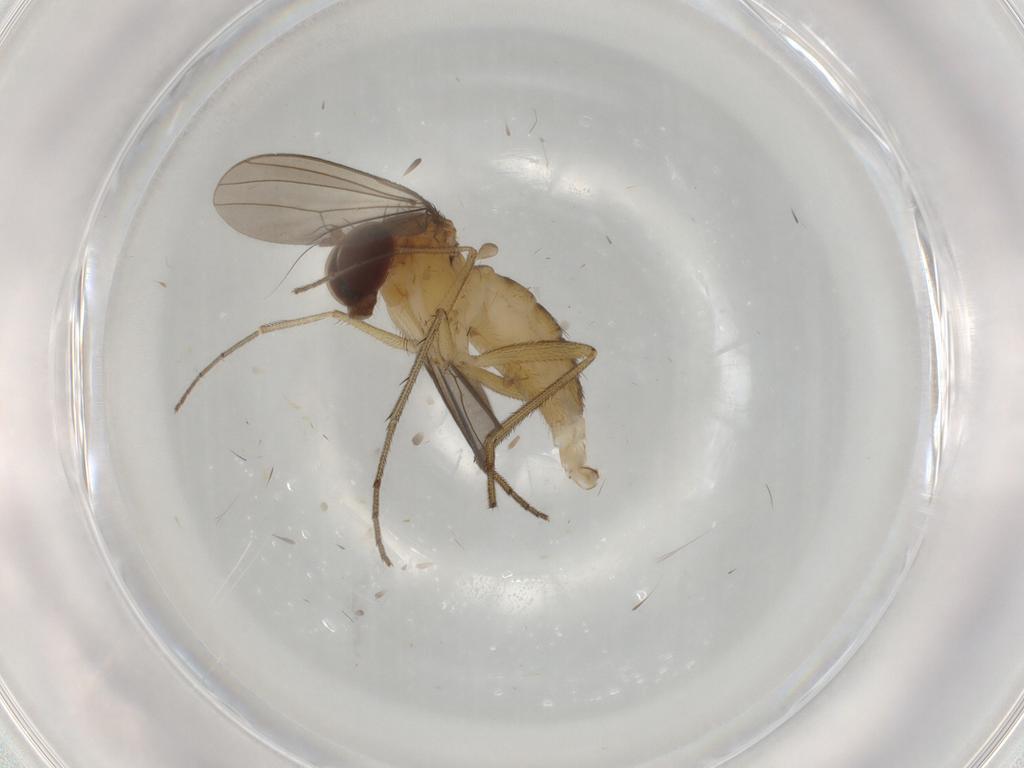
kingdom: Animalia
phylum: Arthropoda
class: Insecta
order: Diptera
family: Dolichopodidae
